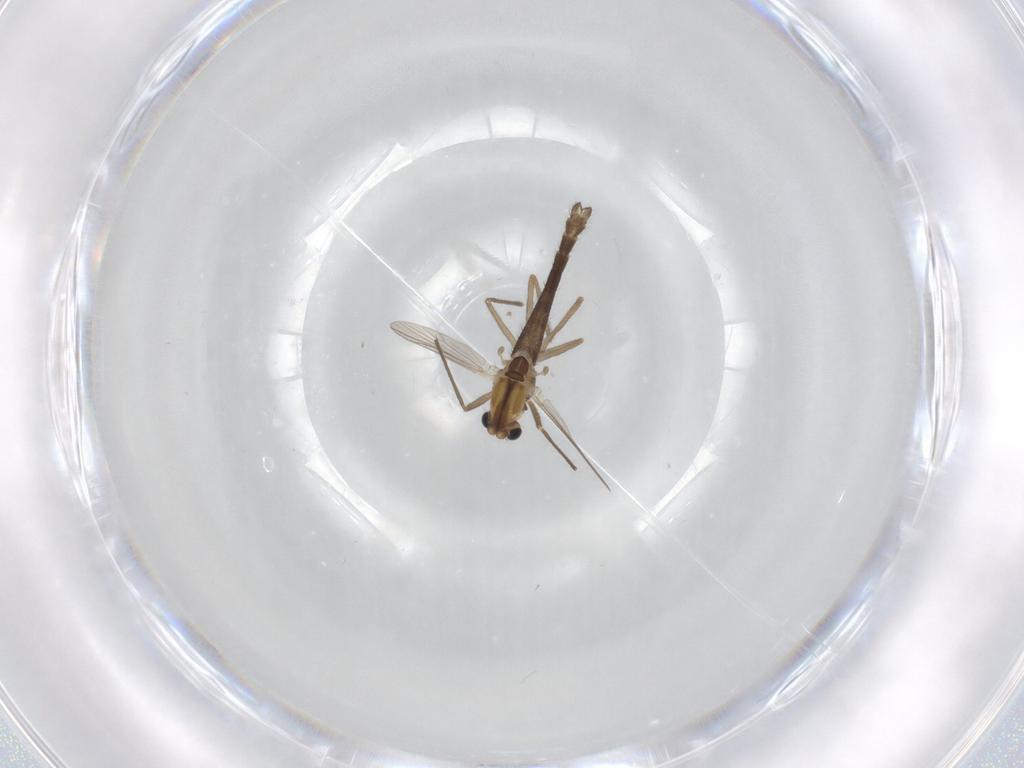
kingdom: Animalia
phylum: Arthropoda
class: Insecta
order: Diptera
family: Chironomidae
